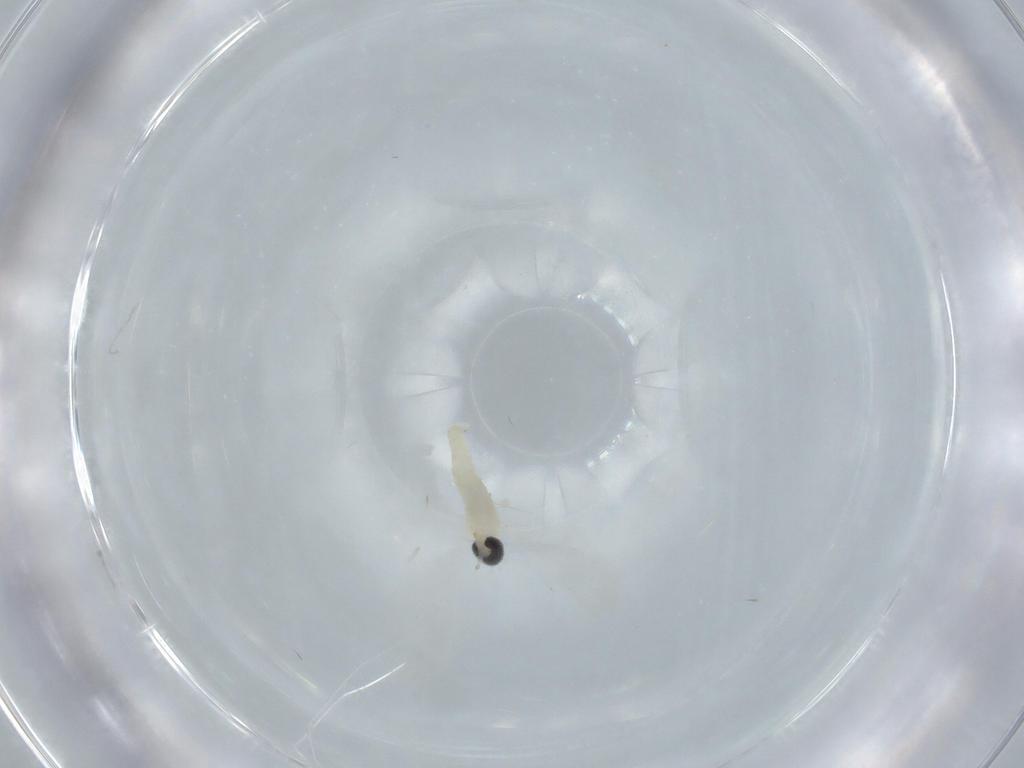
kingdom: Animalia
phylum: Arthropoda
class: Insecta
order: Diptera
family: Cecidomyiidae
